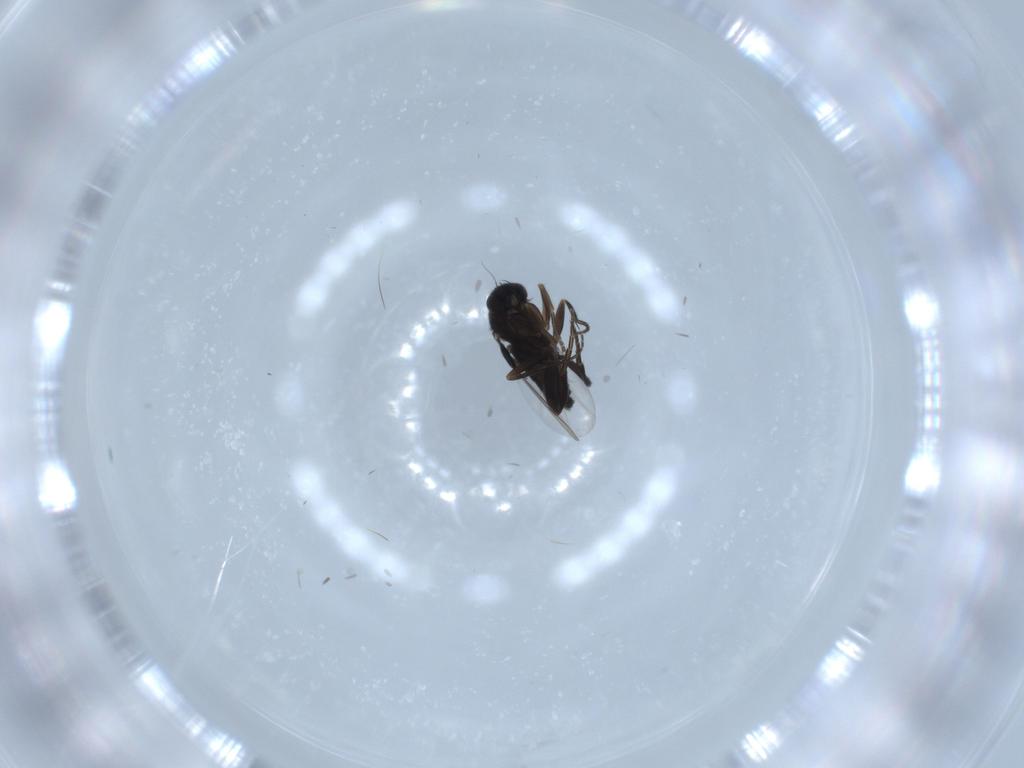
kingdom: Animalia
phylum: Arthropoda
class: Insecta
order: Diptera
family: Phoridae
